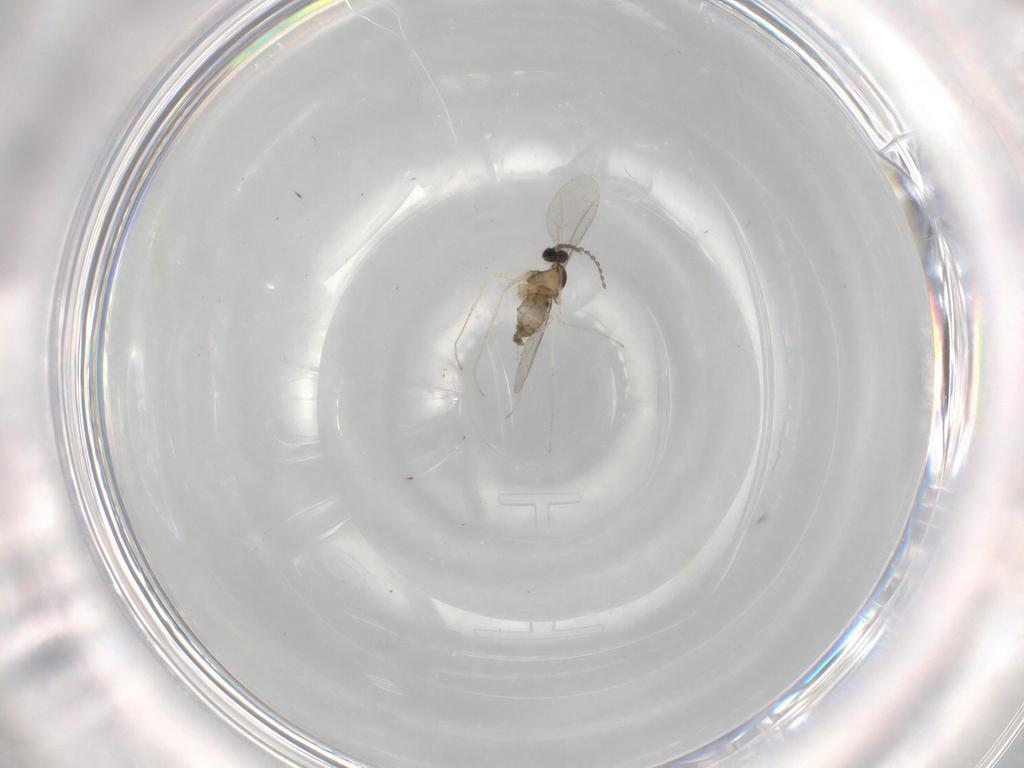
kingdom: Animalia
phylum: Arthropoda
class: Insecta
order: Diptera
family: Cecidomyiidae
